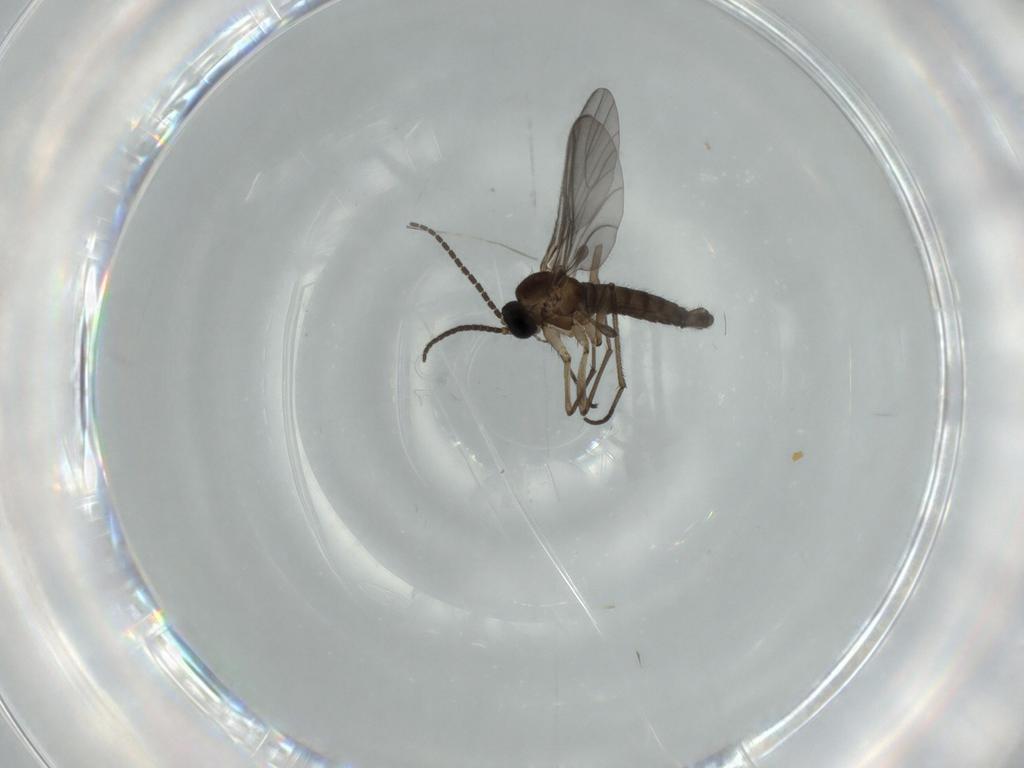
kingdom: Animalia
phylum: Arthropoda
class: Insecta
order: Diptera
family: Sciaridae
